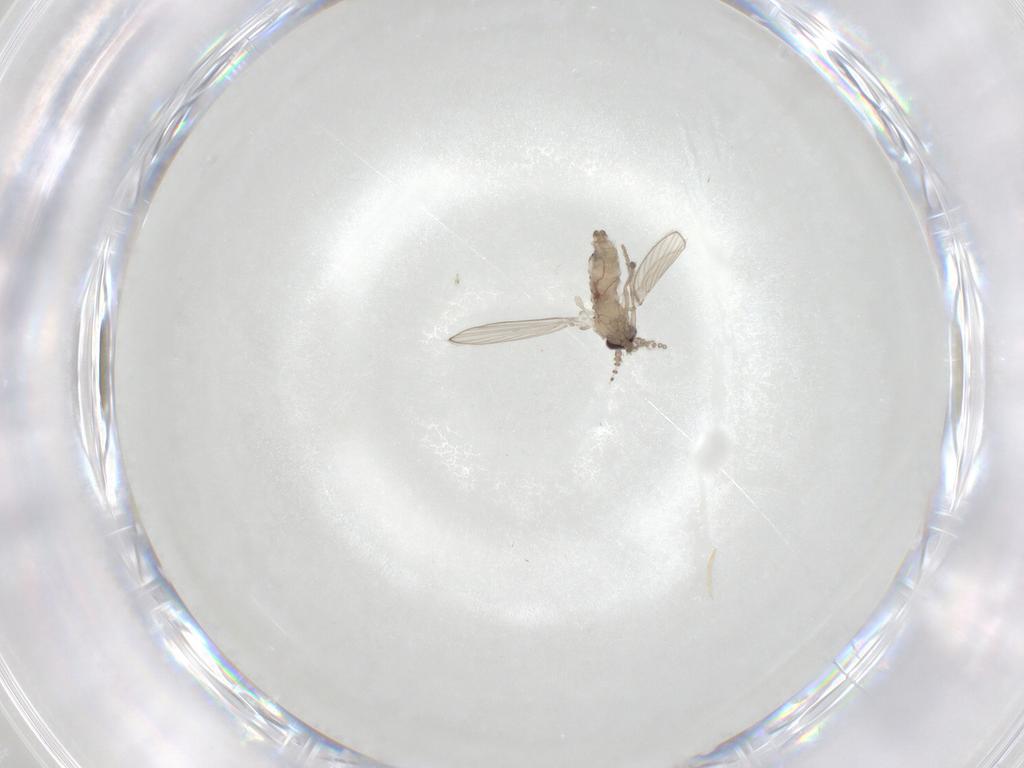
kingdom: Animalia
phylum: Arthropoda
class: Insecta
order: Diptera
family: Psychodidae
